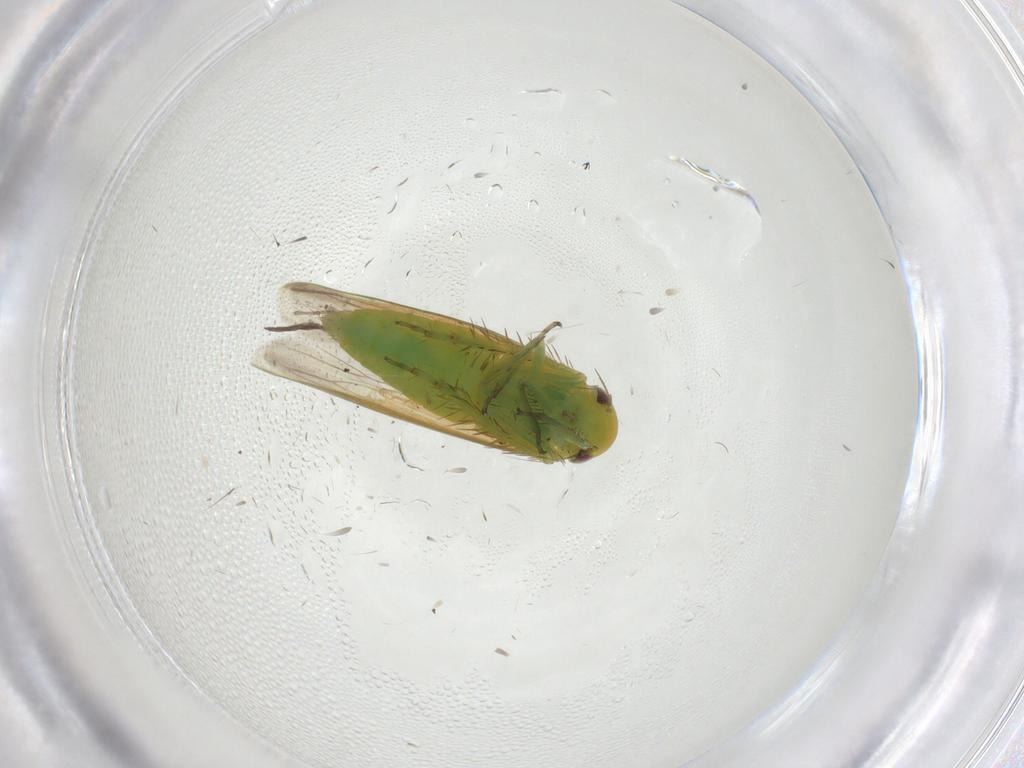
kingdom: Animalia
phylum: Arthropoda
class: Insecta
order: Hemiptera
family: Cicadellidae
